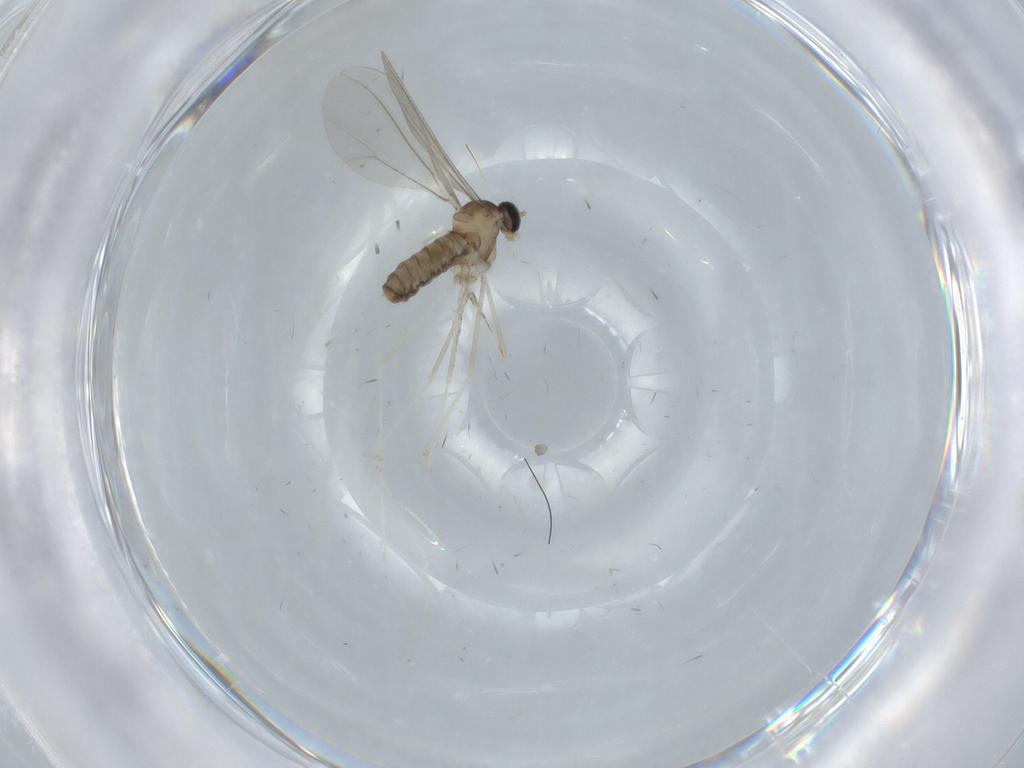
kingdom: Animalia
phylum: Arthropoda
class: Insecta
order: Diptera
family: Cecidomyiidae
